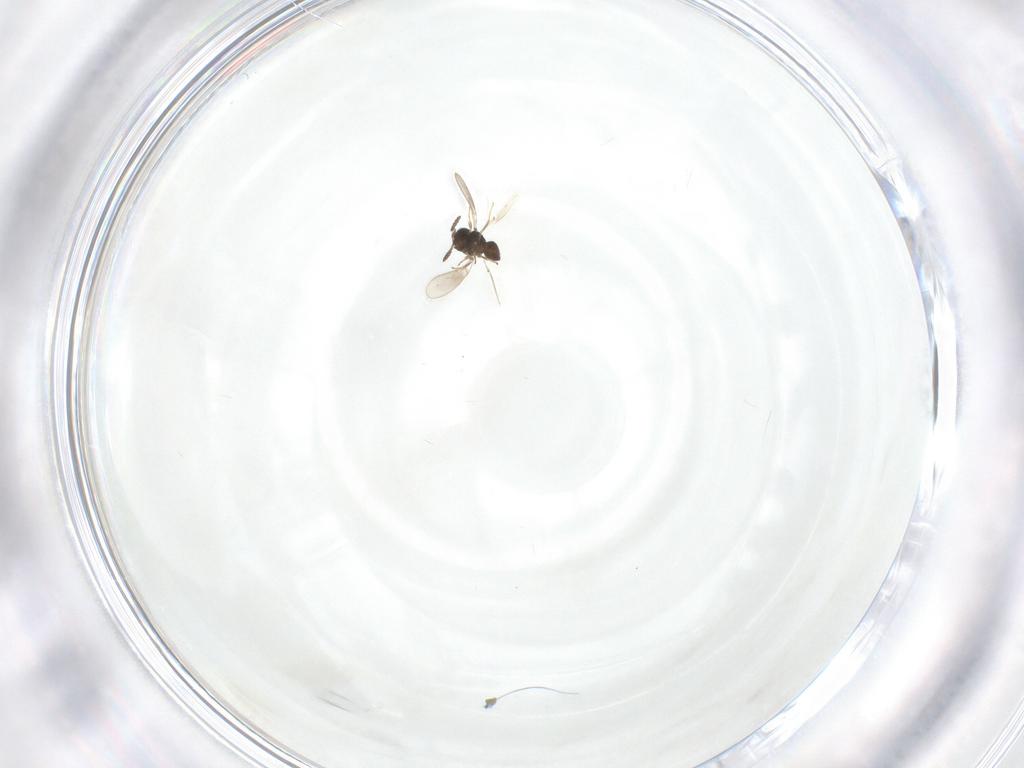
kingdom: Animalia
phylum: Arthropoda
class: Insecta
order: Hymenoptera
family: Scelionidae
